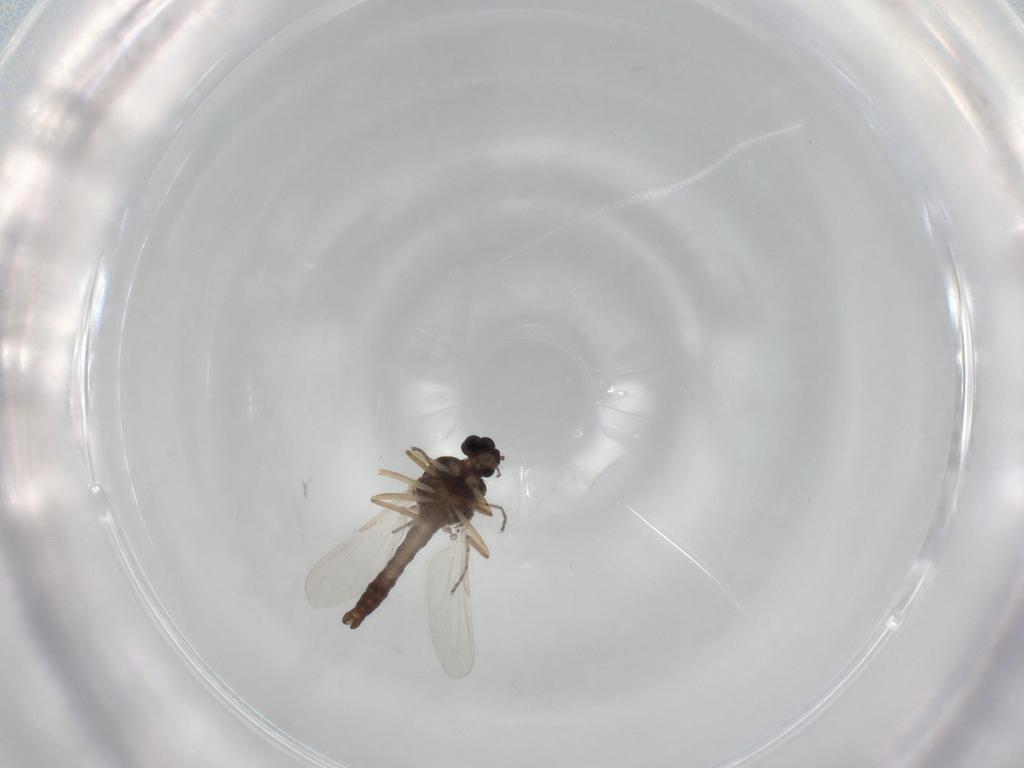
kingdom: Animalia
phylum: Arthropoda
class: Insecta
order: Diptera
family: Ceratopogonidae
